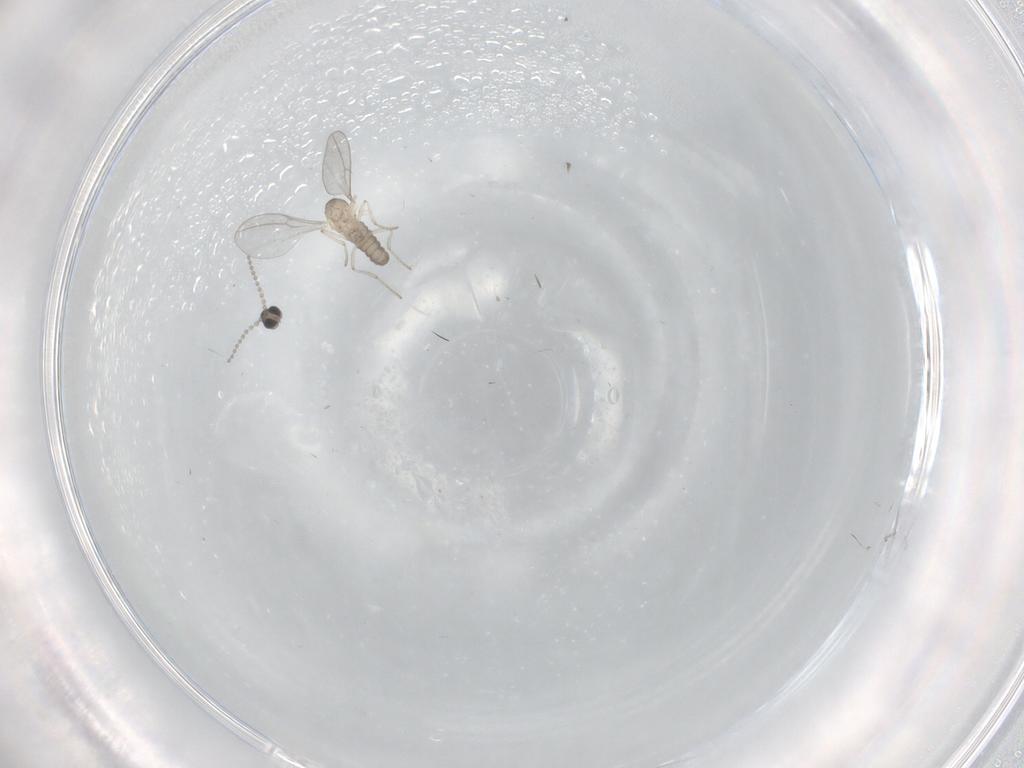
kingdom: Animalia
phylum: Arthropoda
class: Insecta
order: Diptera
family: Cecidomyiidae
